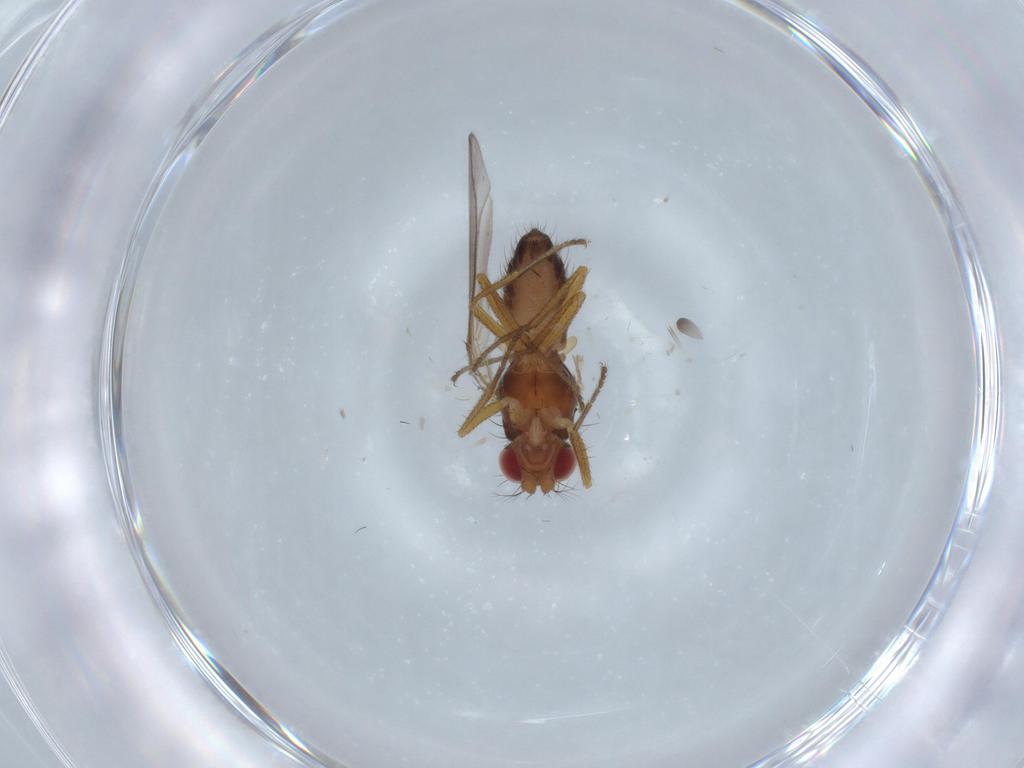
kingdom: Animalia
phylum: Arthropoda
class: Insecta
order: Diptera
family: Drosophilidae
